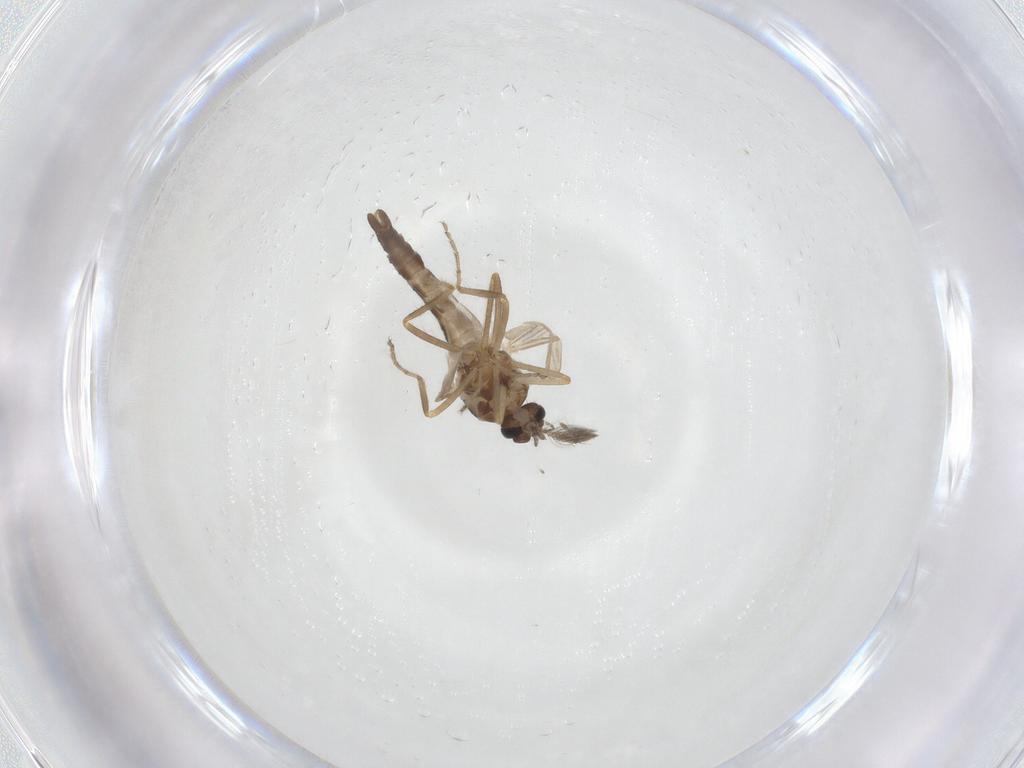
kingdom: Animalia
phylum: Arthropoda
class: Insecta
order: Diptera
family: Ceratopogonidae
